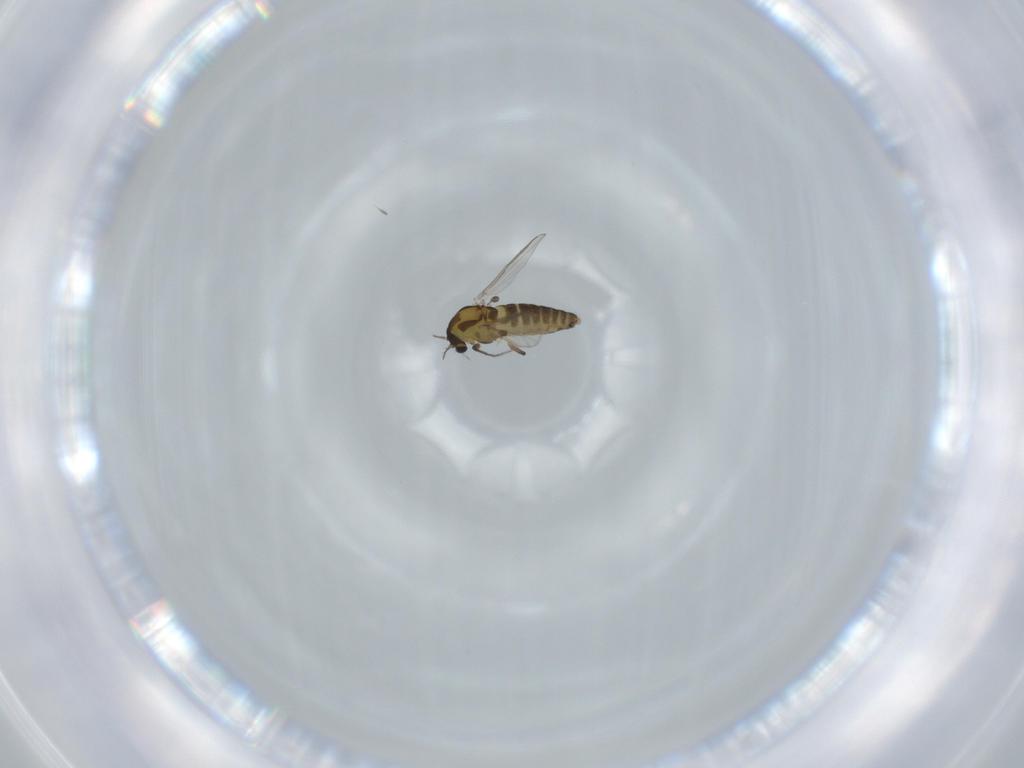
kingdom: Animalia
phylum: Arthropoda
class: Insecta
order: Diptera
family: Chironomidae
